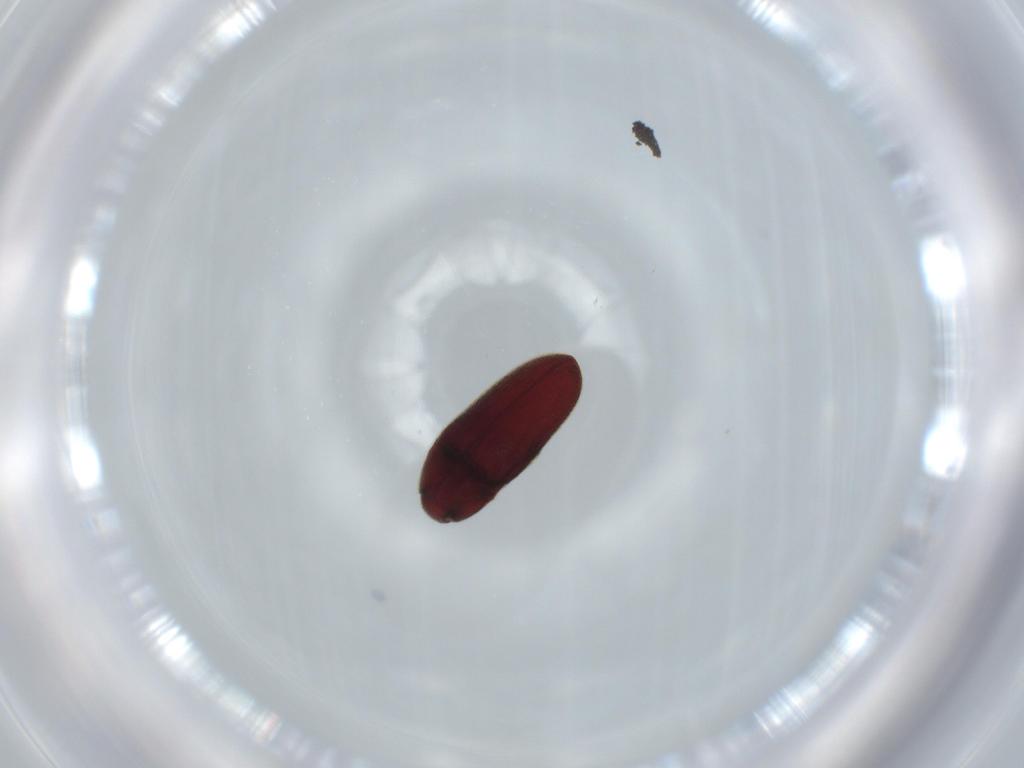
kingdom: Animalia
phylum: Arthropoda
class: Insecta
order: Coleoptera
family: Throscidae
